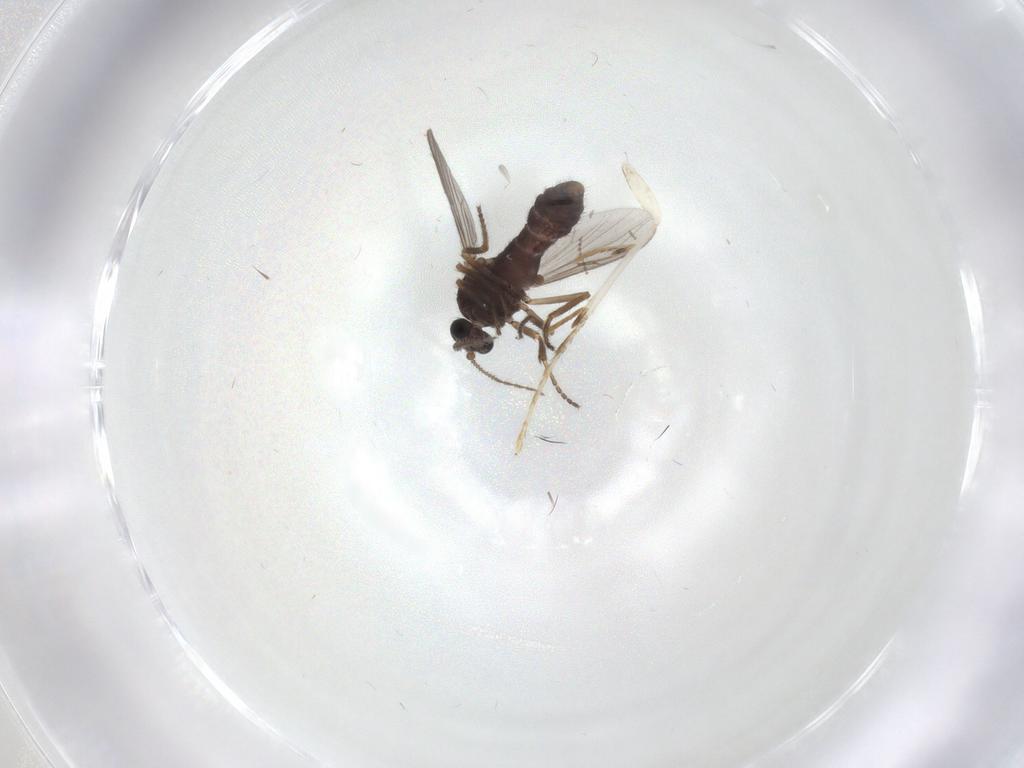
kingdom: Animalia
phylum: Arthropoda
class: Insecta
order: Diptera
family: Ceratopogonidae
